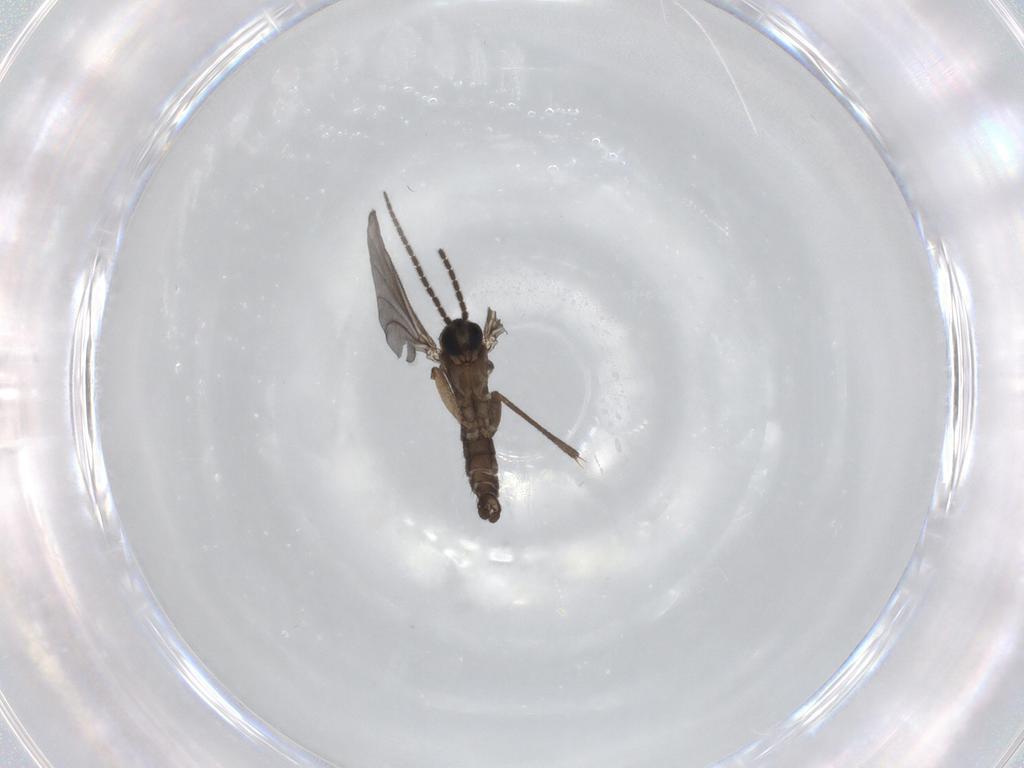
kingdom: Animalia
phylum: Arthropoda
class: Insecta
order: Diptera
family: Sciaridae
